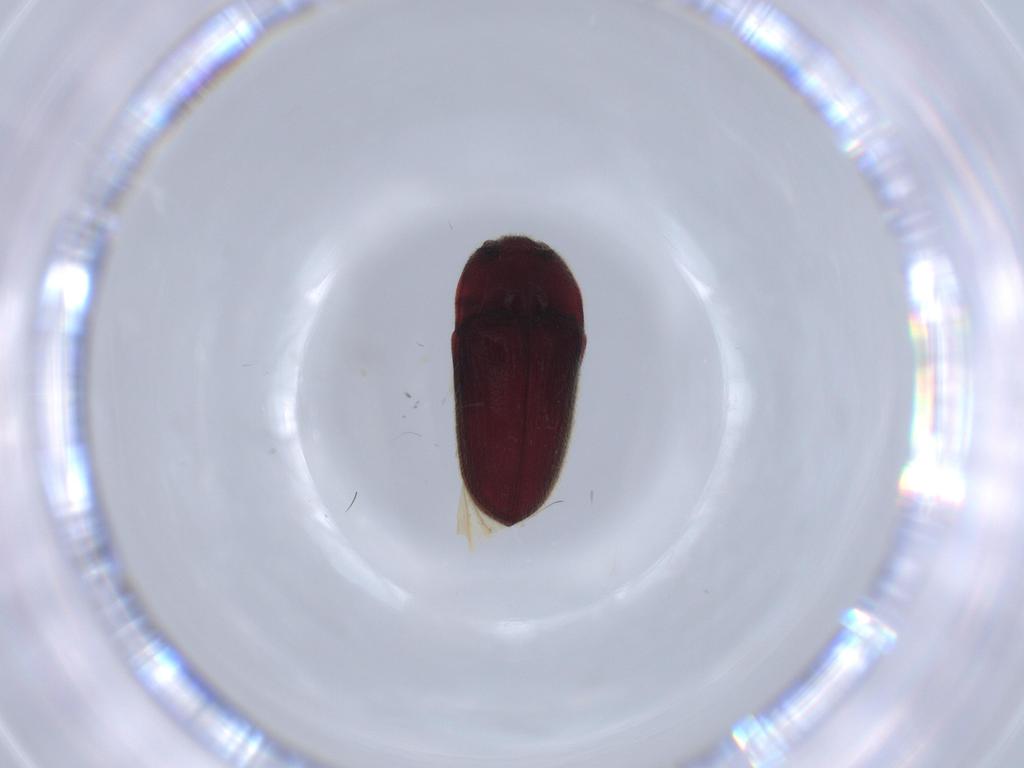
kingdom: Animalia
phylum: Arthropoda
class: Insecta
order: Coleoptera
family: Throscidae
